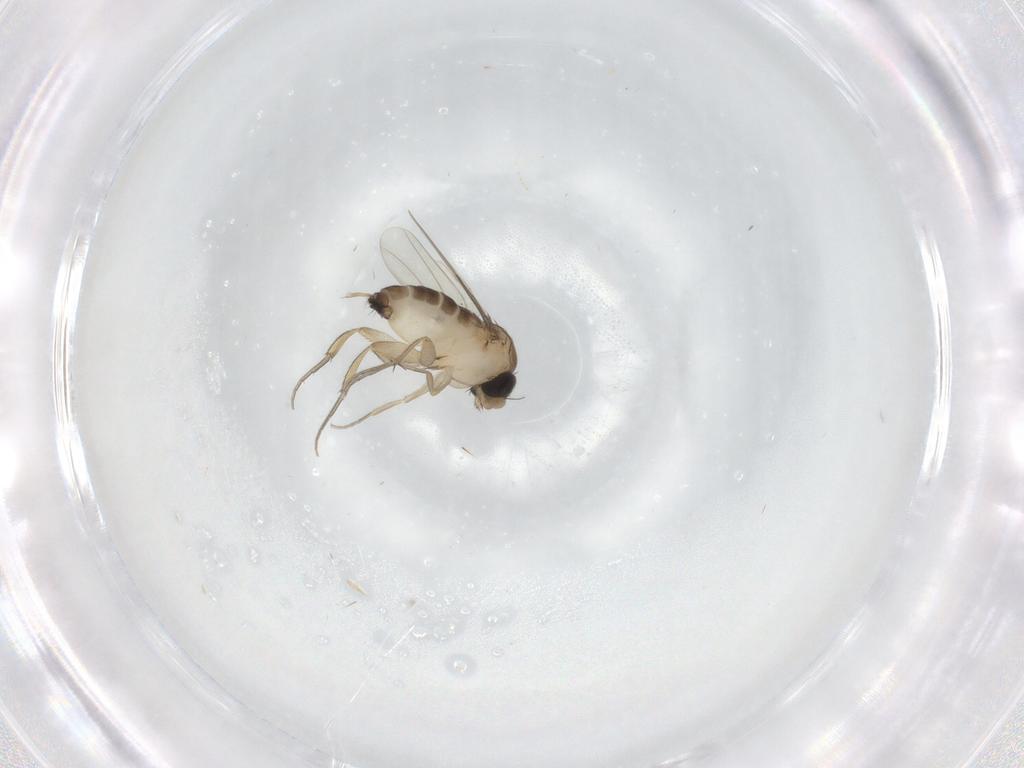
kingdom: Animalia
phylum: Arthropoda
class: Insecta
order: Diptera
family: Cecidomyiidae
